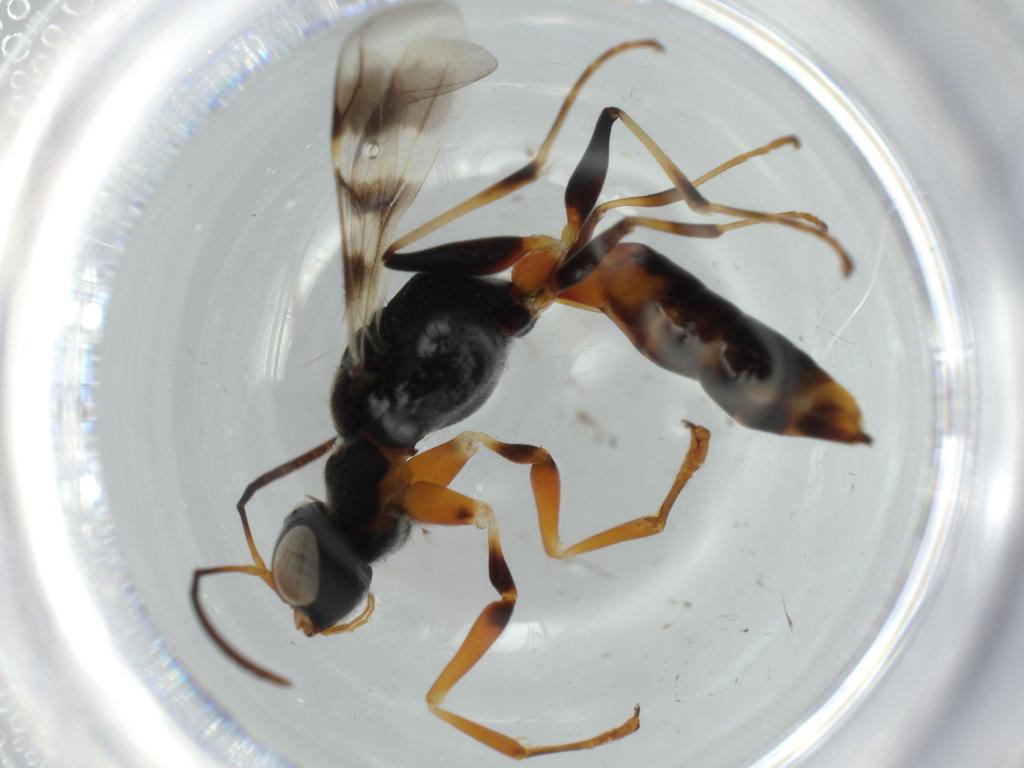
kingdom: Animalia
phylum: Arthropoda
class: Insecta
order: Hymenoptera
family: Dryinidae
